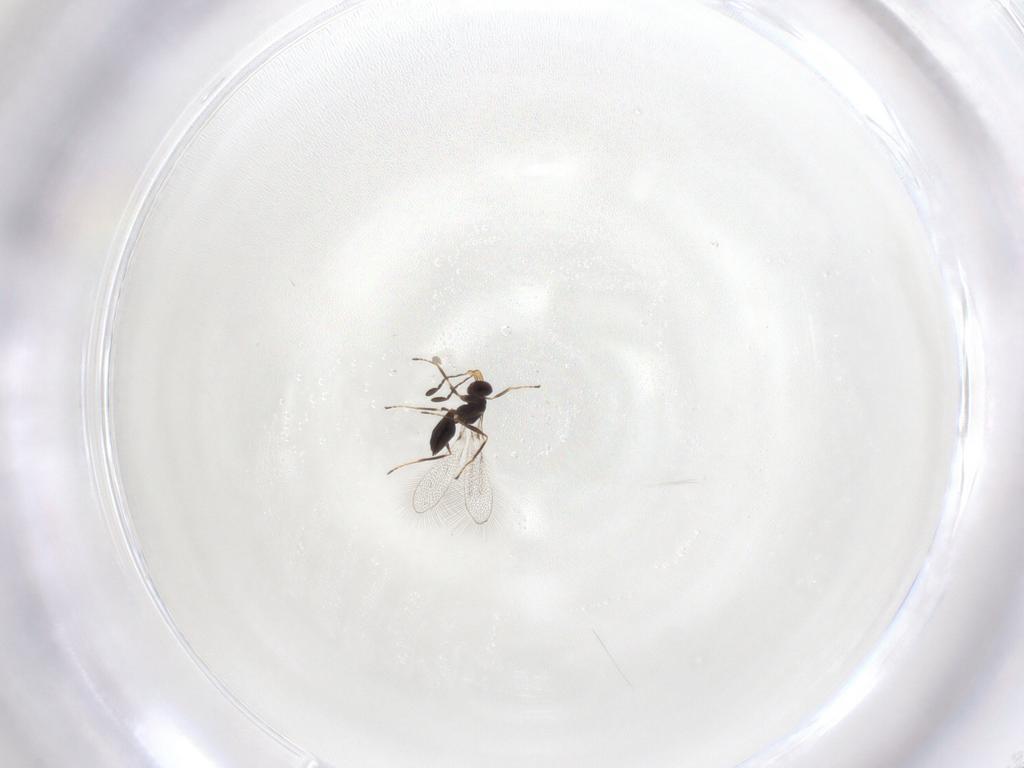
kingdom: Animalia
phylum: Arthropoda
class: Insecta
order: Hymenoptera
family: Mymaridae
